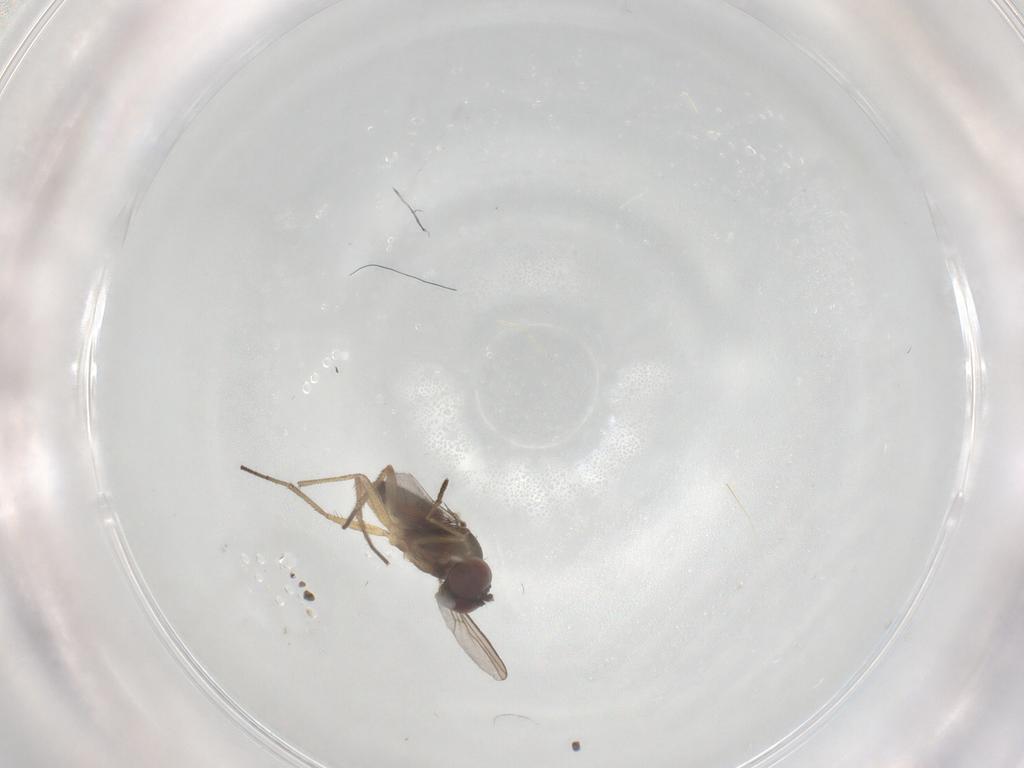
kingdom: Animalia
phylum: Arthropoda
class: Insecta
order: Diptera
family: Dolichopodidae
